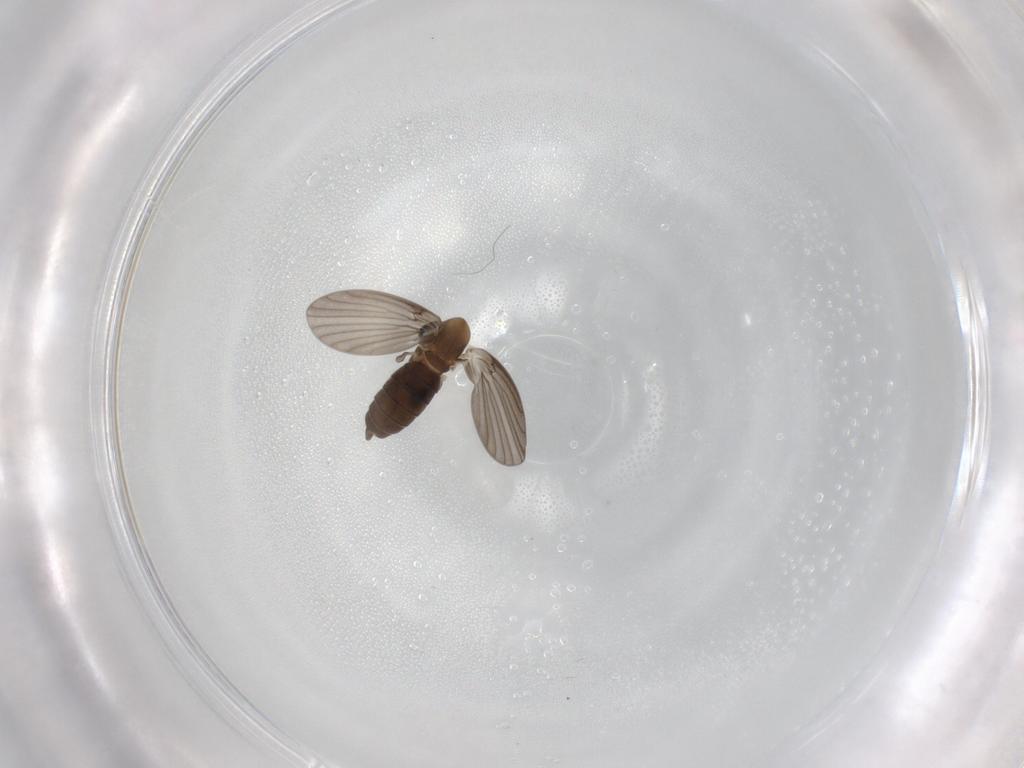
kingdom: Animalia
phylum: Arthropoda
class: Insecta
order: Diptera
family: Psychodidae
